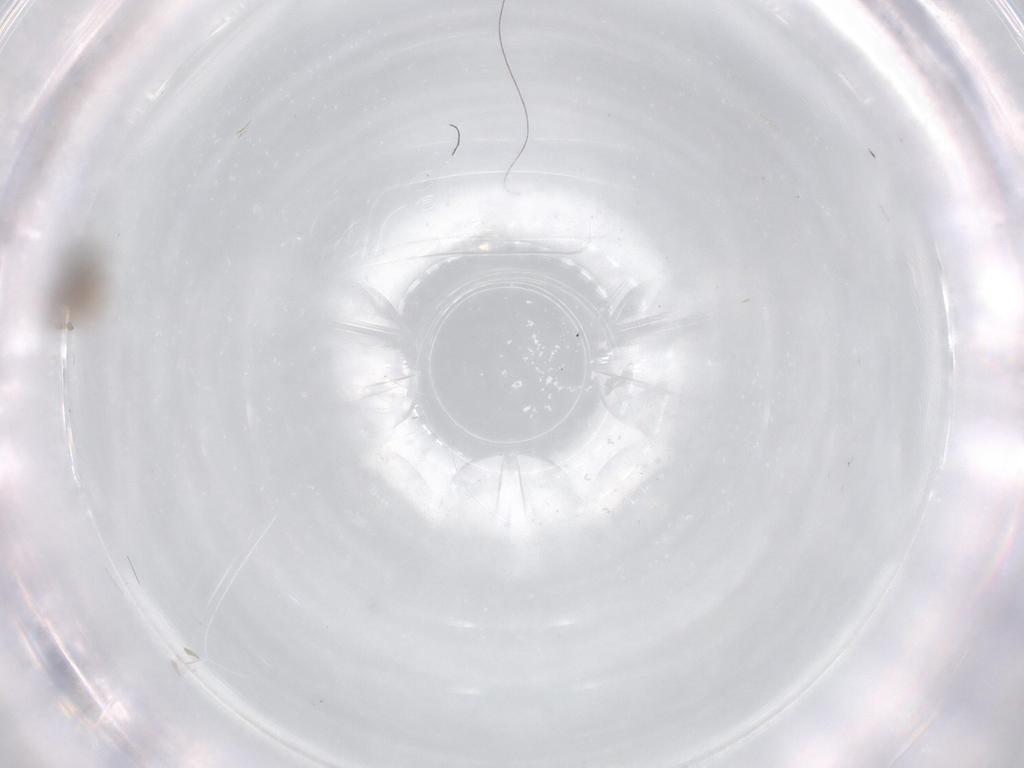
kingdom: Animalia
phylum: Arthropoda
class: Insecta
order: Diptera
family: Cecidomyiidae
